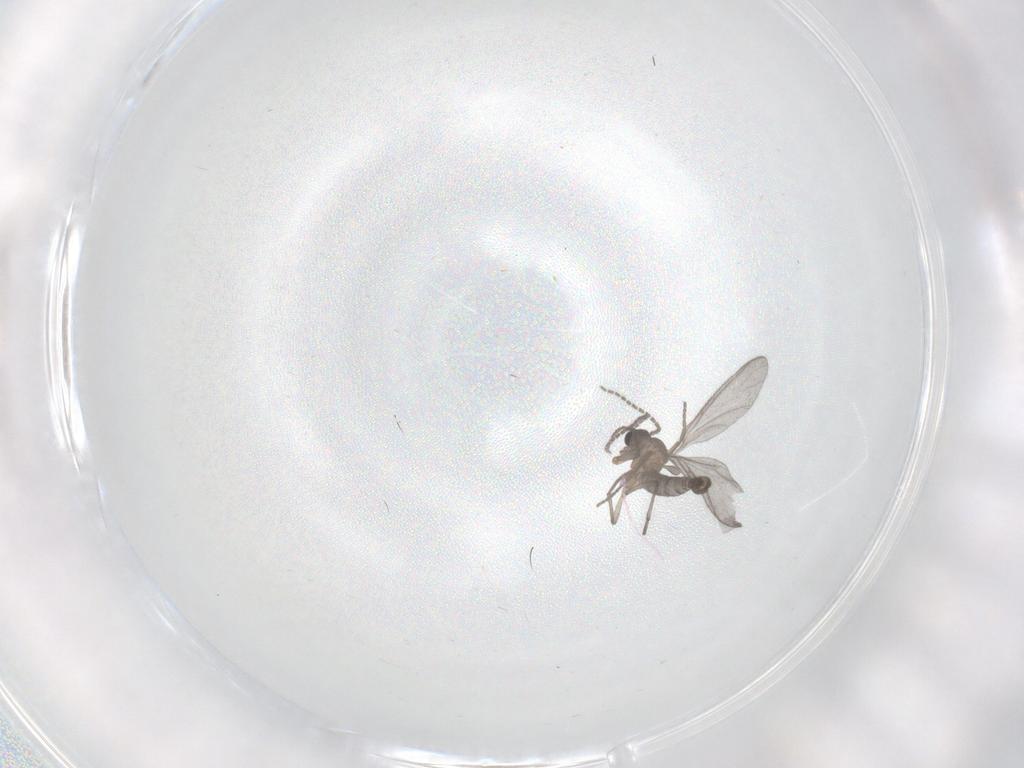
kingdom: Animalia
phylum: Arthropoda
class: Insecta
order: Diptera
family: Sciaridae
